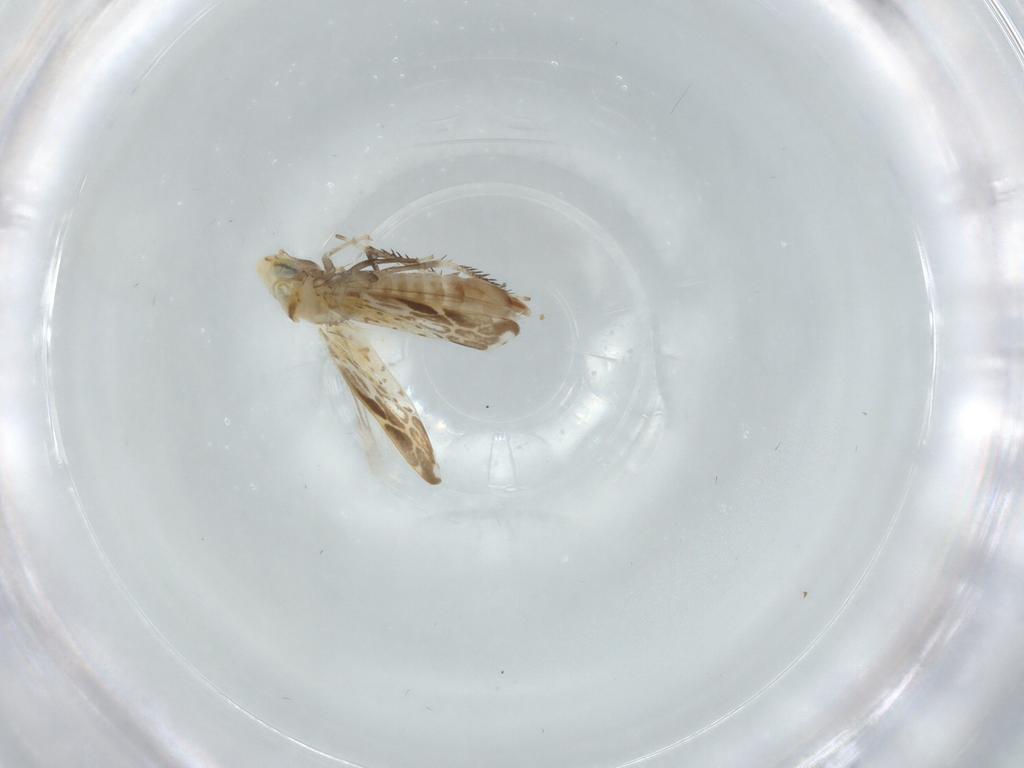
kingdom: Animalia
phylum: Arthropoda
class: Insecta
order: Hemiptera
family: Cicadellidae
